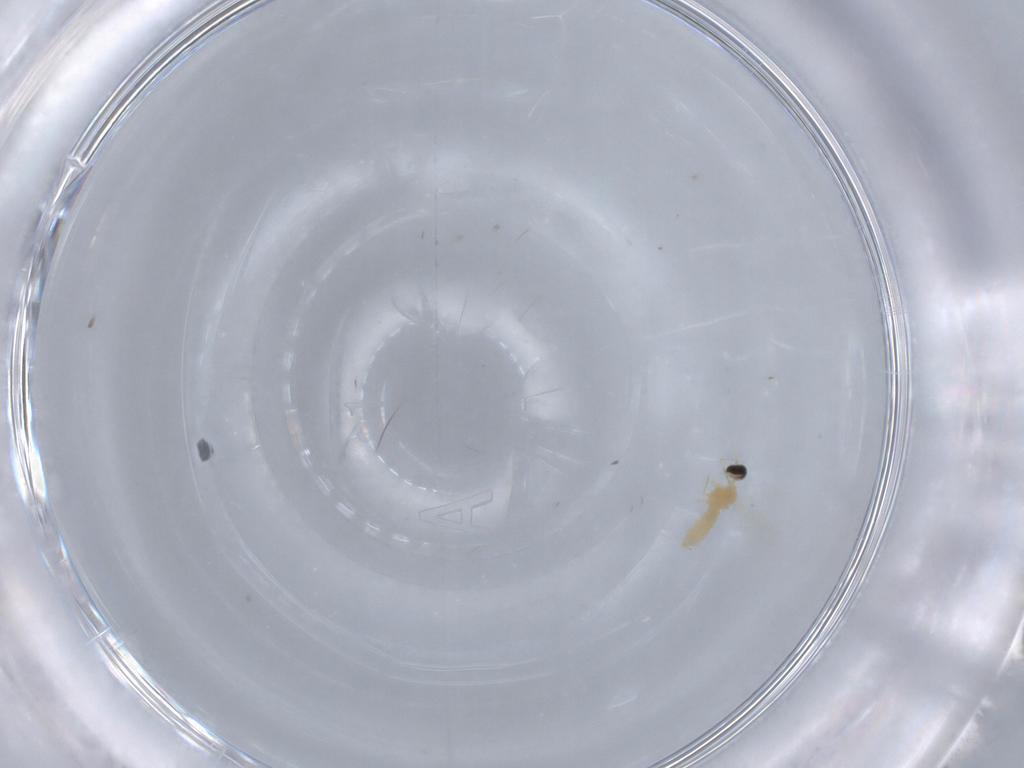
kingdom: Animalia
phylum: Arthropoda
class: Insecta
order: Diptera
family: Cecidomyiidae
